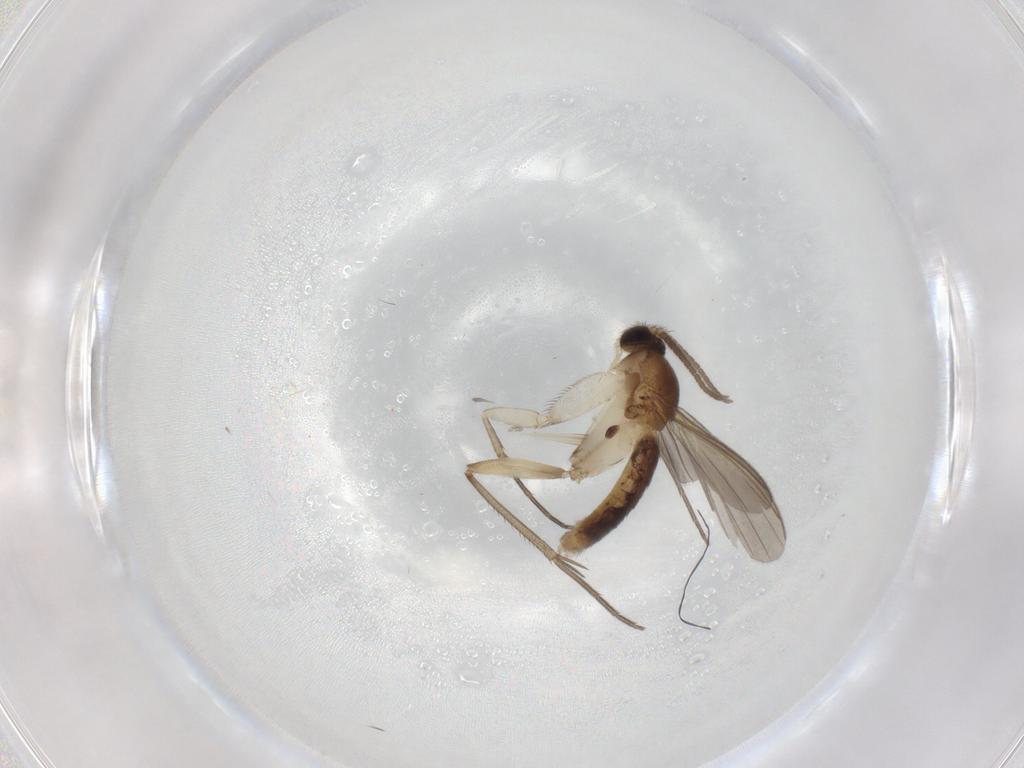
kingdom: Animalia
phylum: Arthropoda
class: Insecta
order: Diptera
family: Mycetophilidae
